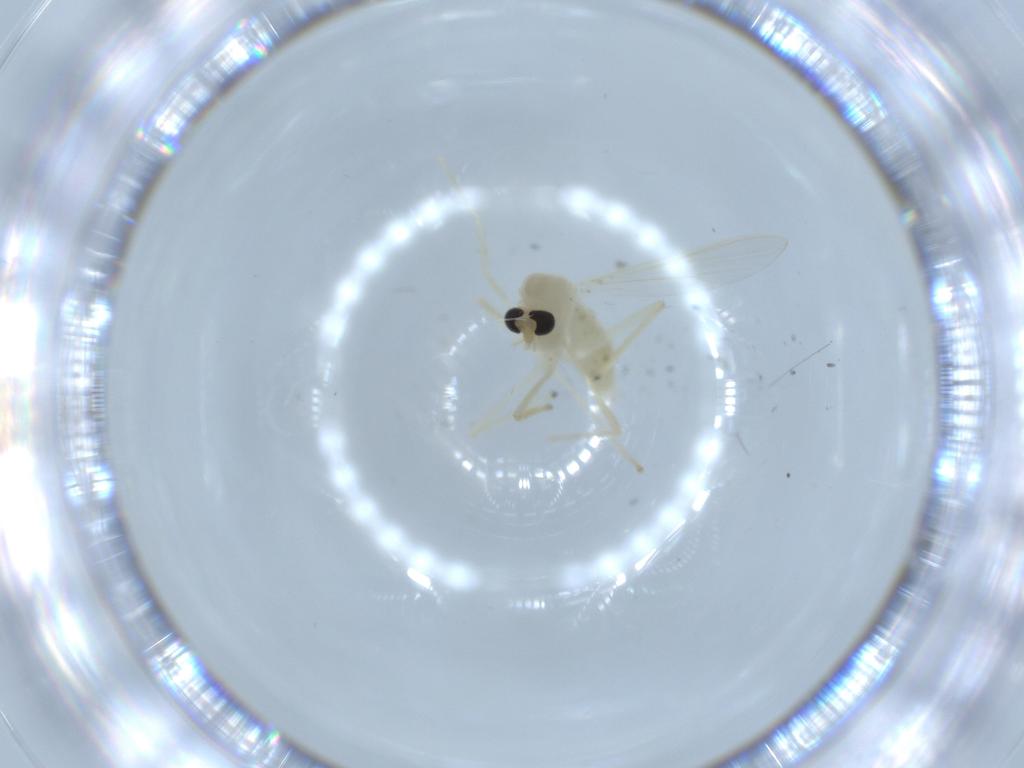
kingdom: Animalia
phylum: Arthropoda
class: Insecta
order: Diptera
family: Chironomidae
